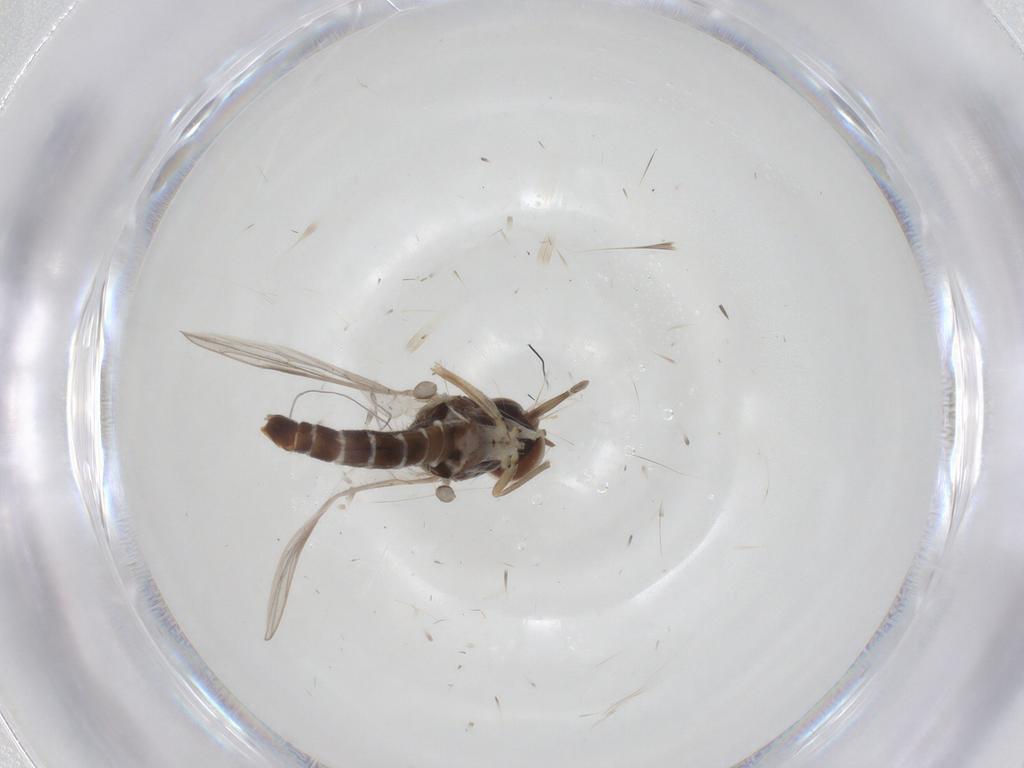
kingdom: Animalia
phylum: Arthropoda
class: Insecta
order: Diptera
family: Scenopinidae
